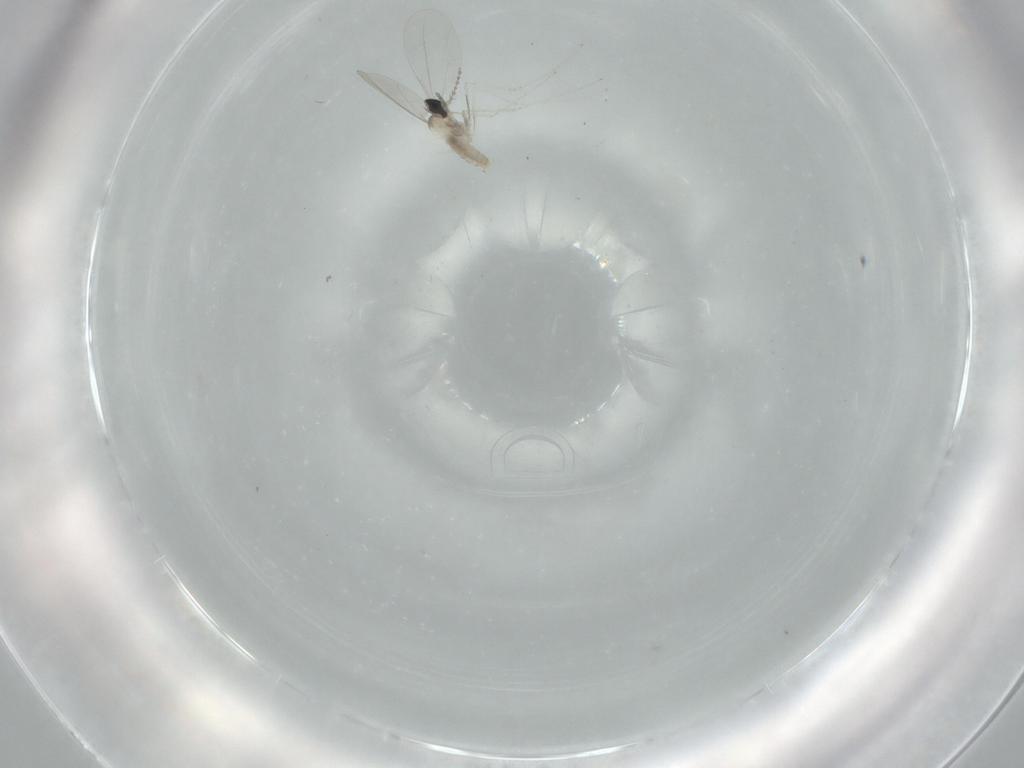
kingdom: Animalia
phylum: Arthropoda
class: Insecta
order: Diptera
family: Cecidomyiidae
